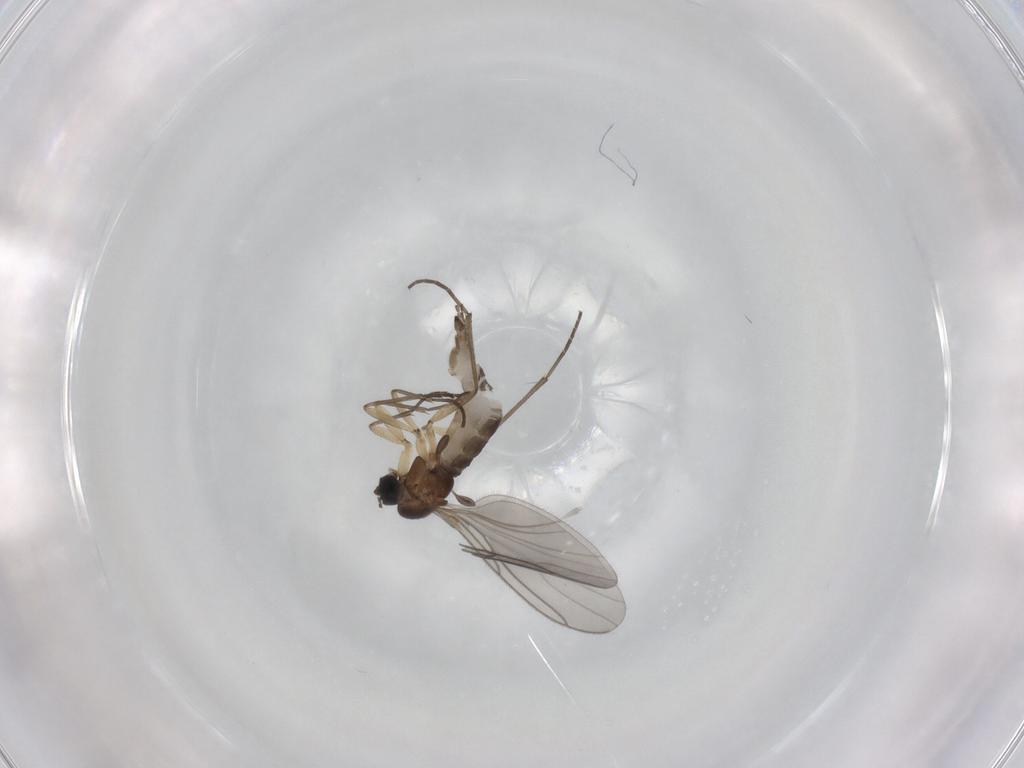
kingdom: Animalia
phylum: Arthropoda
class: Insecta
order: Diptera
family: Sciaridae
